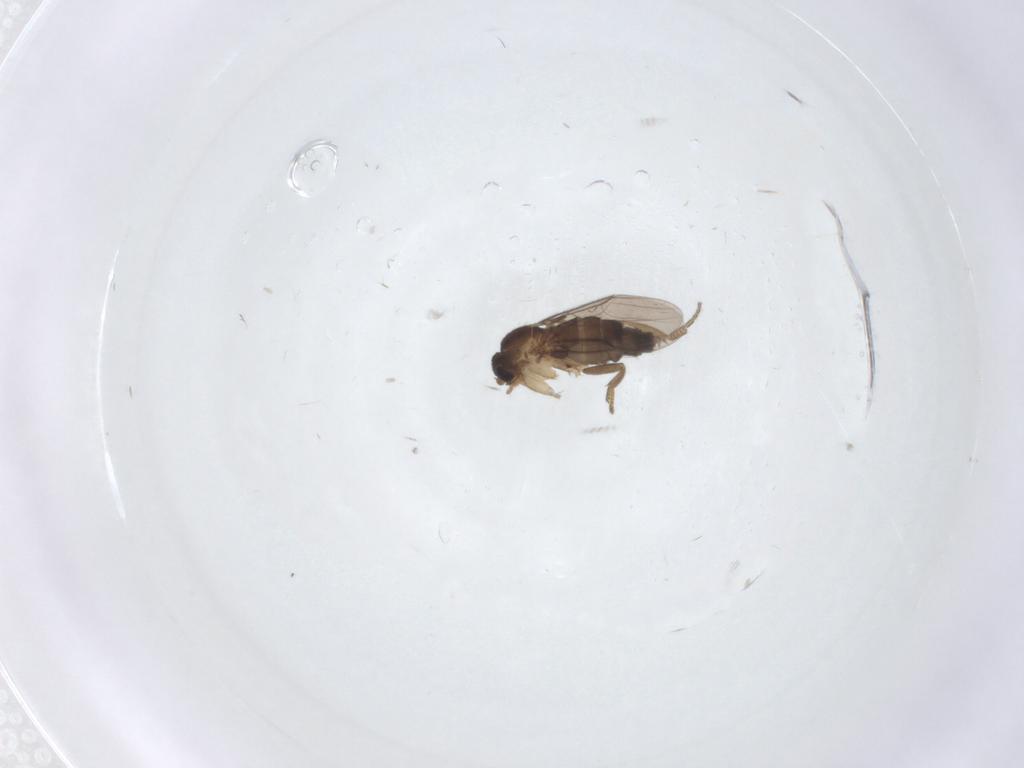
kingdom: Animalia
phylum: Arthropoda
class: Insecta
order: Diptera
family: Phoridae
